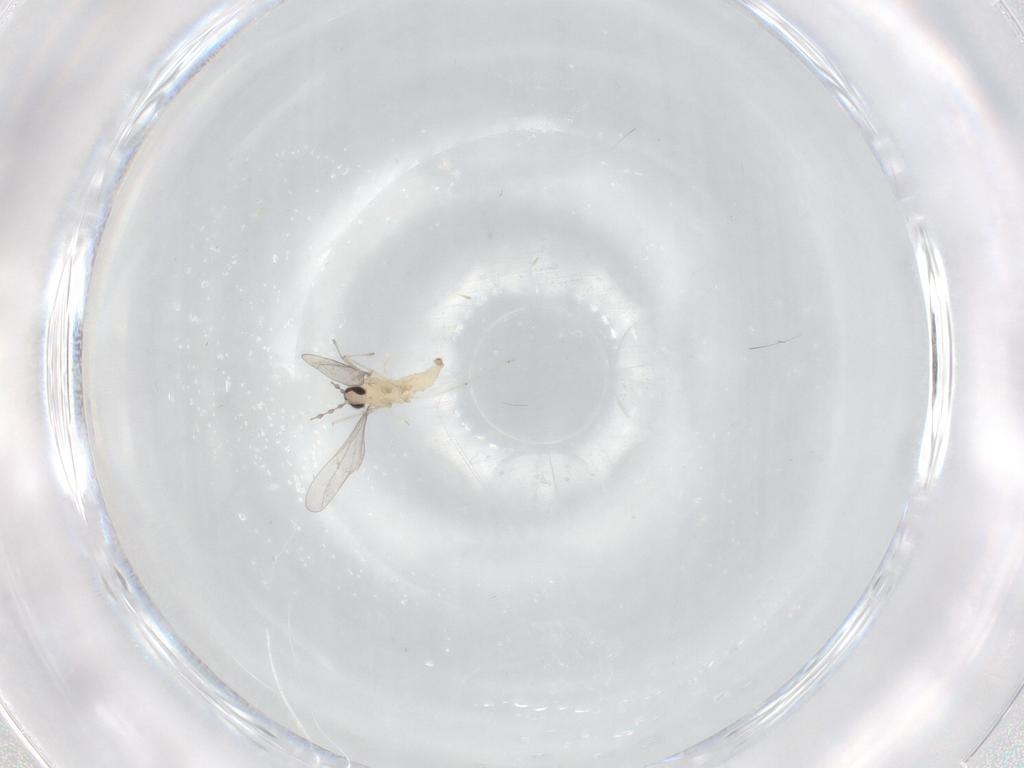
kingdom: Animalia
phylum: Arthropoda
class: Insecta
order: Diptera
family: Cecidomyiidae
